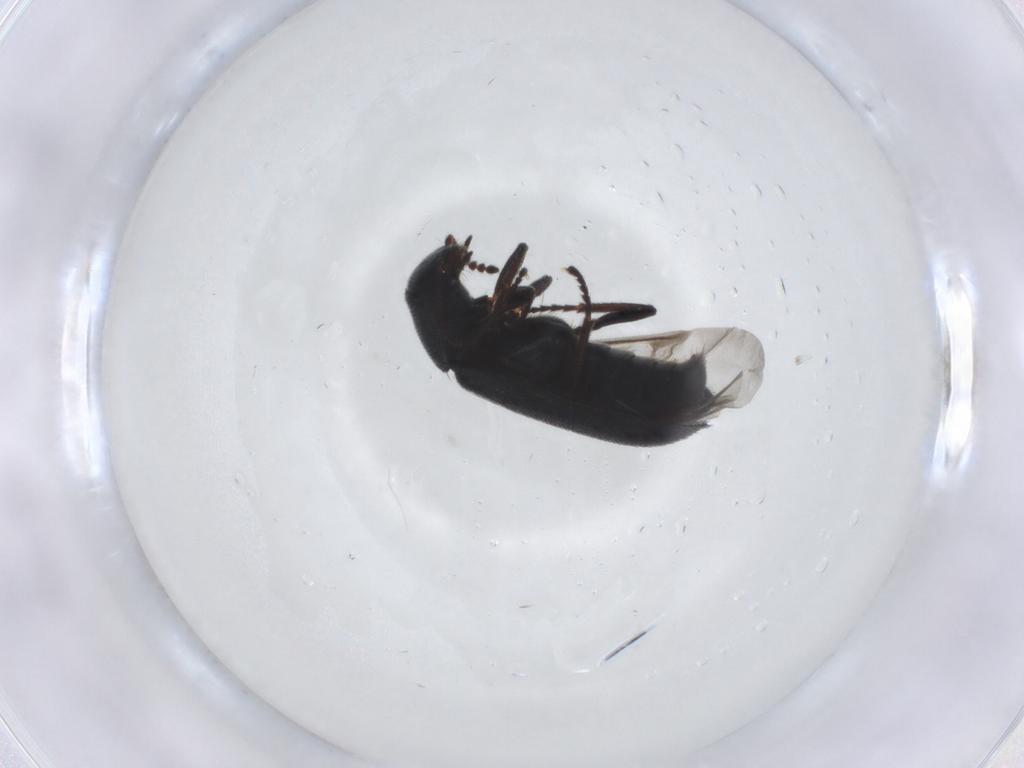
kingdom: Animalia
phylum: Arthropoda
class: Insecta
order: Coleoptera
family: Melyridae
